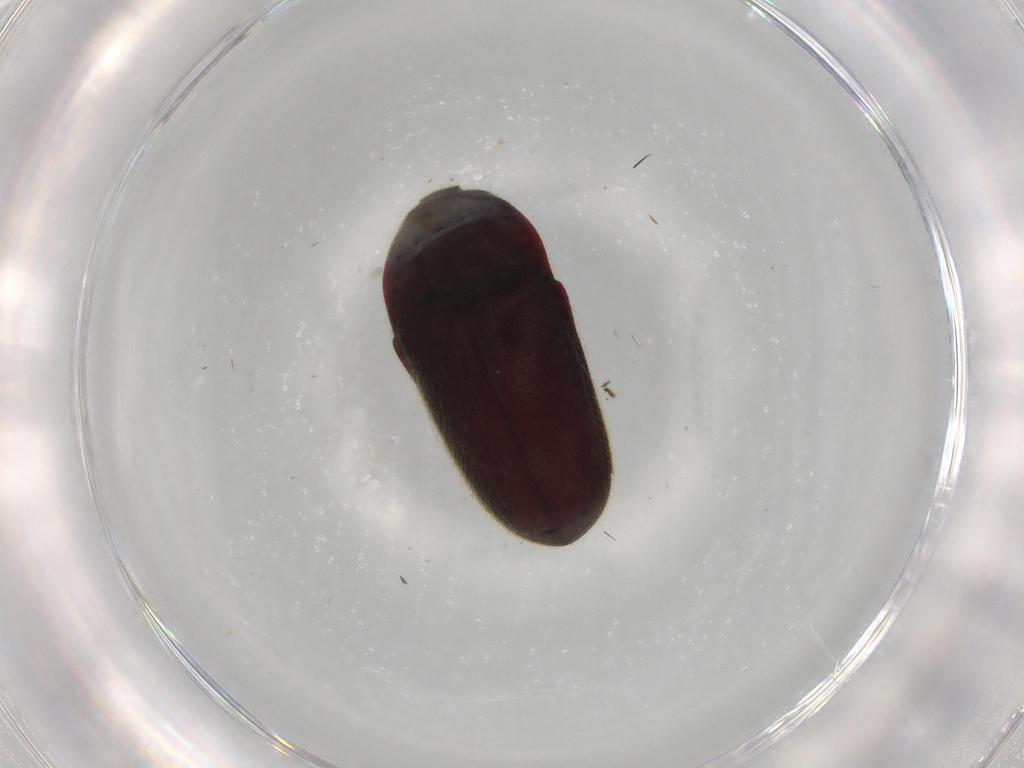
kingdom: Animalia
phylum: Arthropoda
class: Insecta
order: Coleoptera
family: Throscidae
